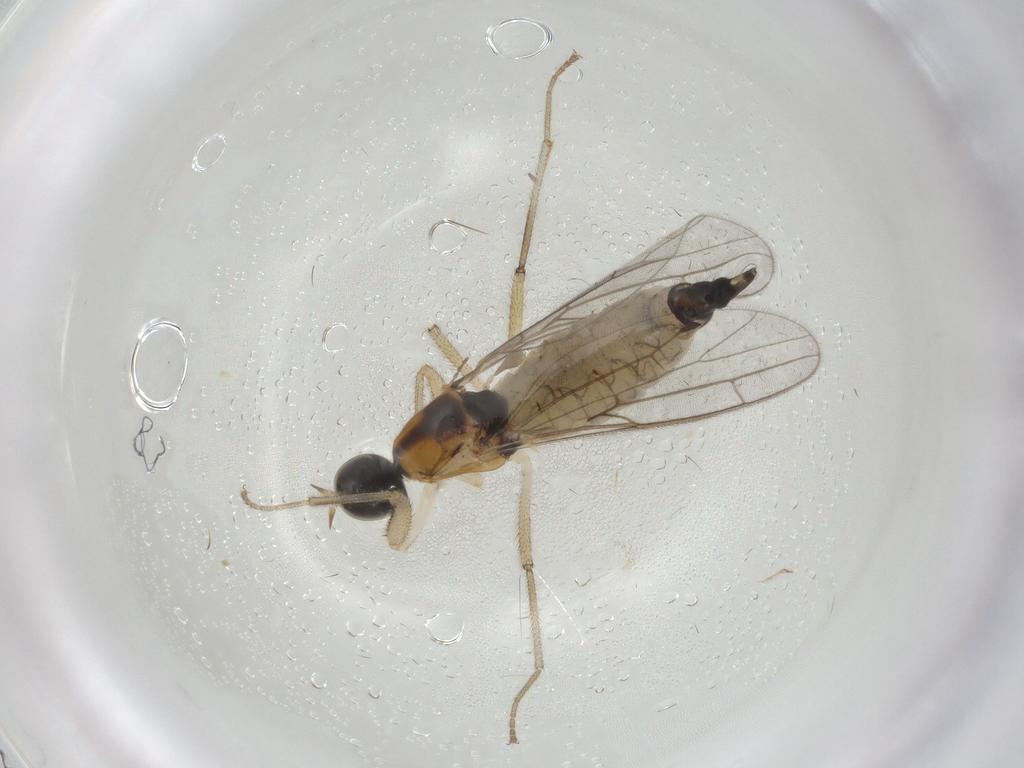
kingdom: Animalia
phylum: Arthropoda
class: Insecta
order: Diptera
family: Empididae
